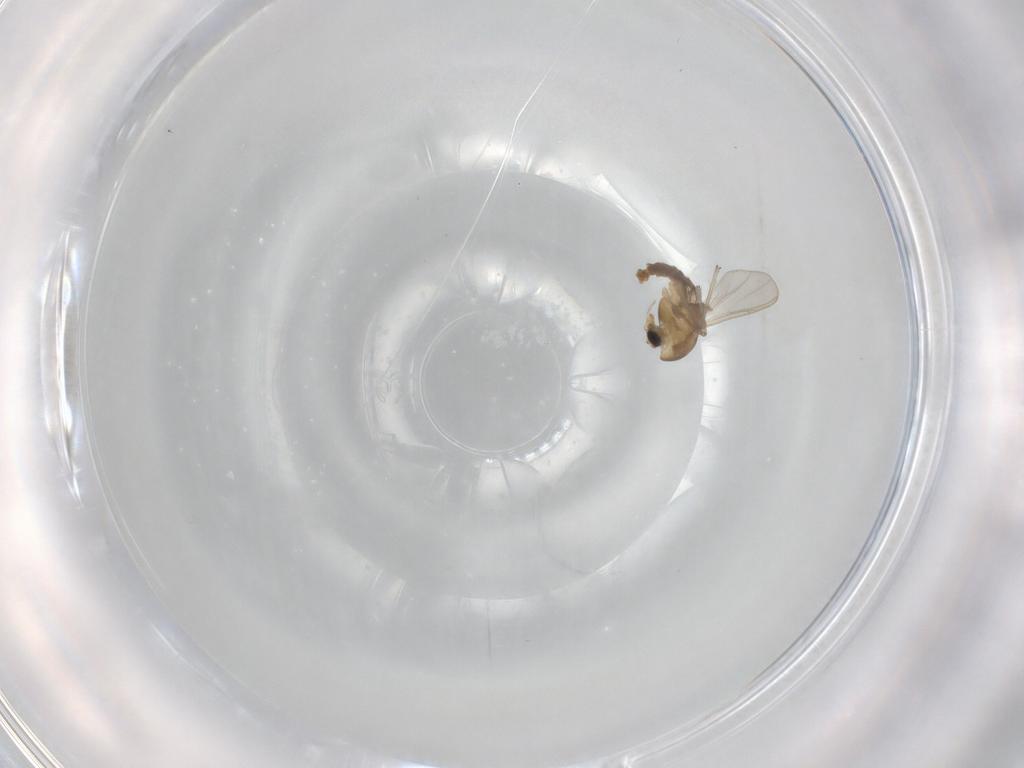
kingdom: Animalia
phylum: Arthropoda
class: Insecta
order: Diptera
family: Chironomidae
